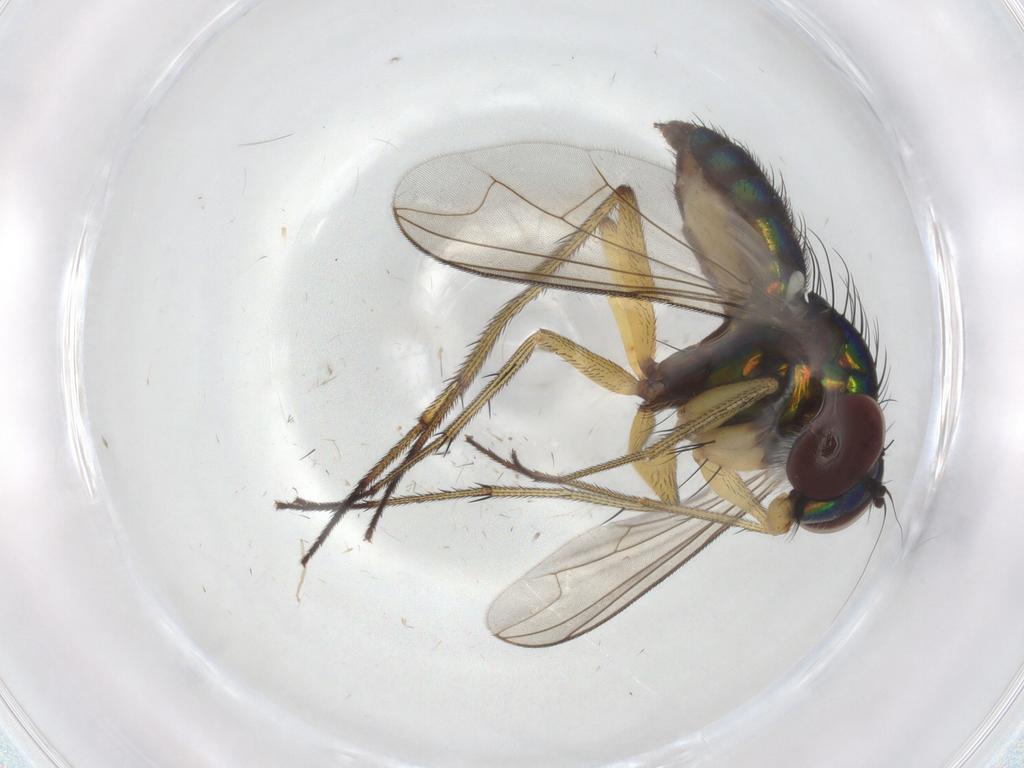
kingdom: Animalia
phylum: Arthropoda
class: Insecta
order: Diptera
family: Dolichopodidae
